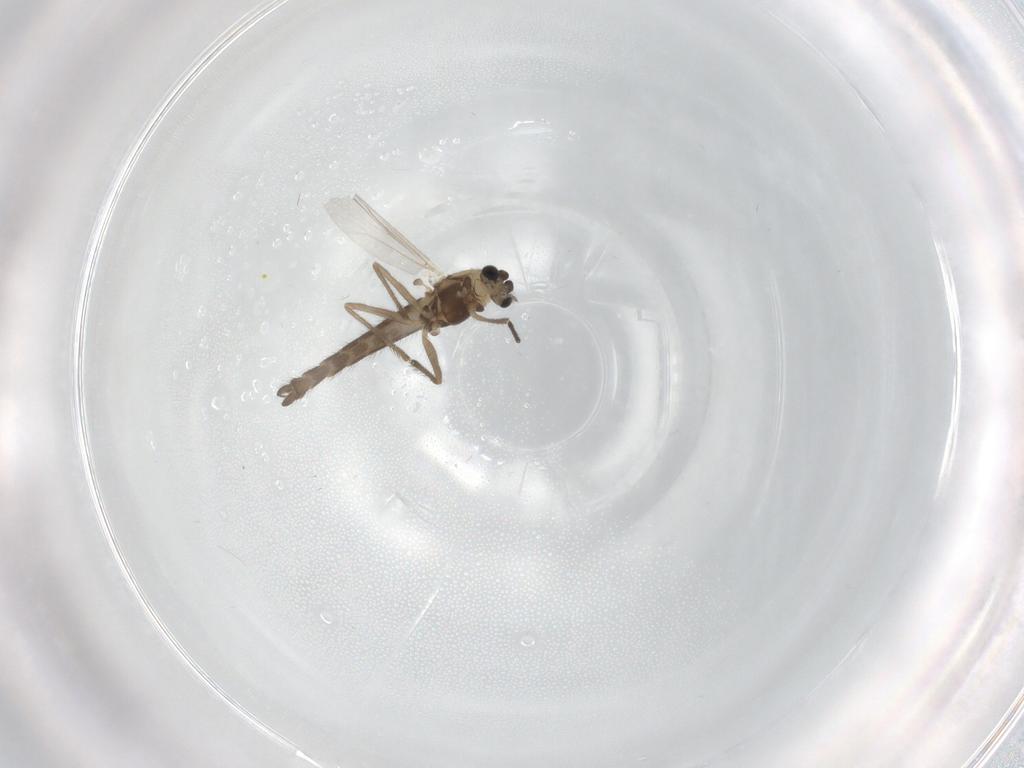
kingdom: Animalia
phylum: Arthropoda
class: Insecta
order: Diptera
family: Chironomidae
